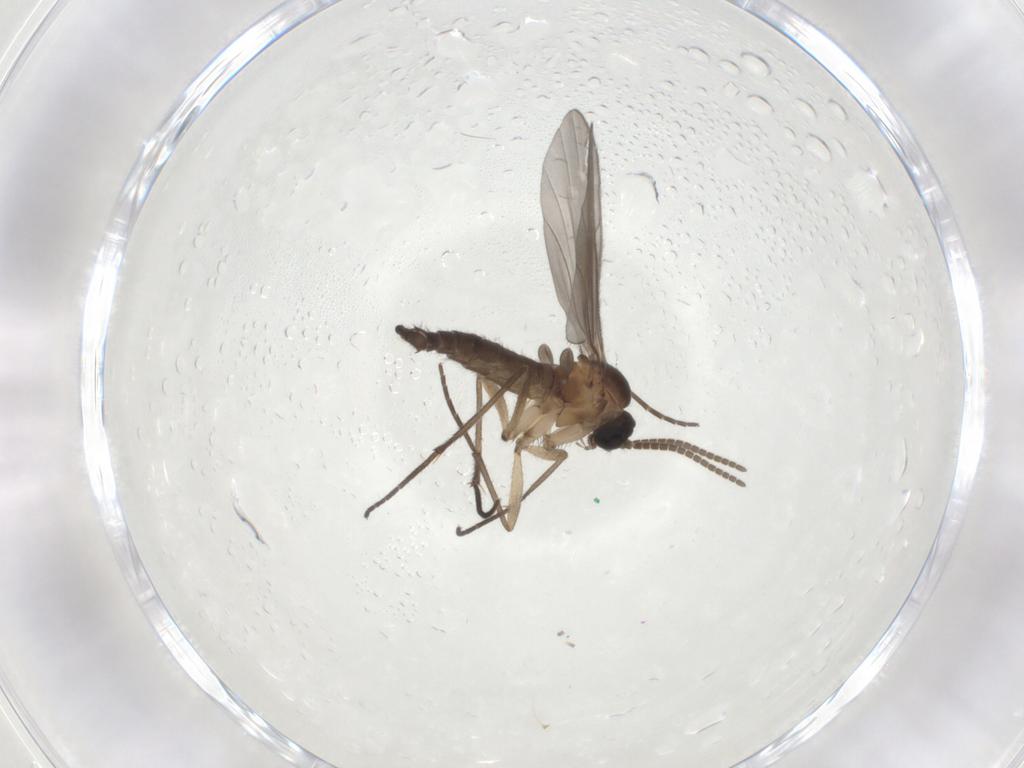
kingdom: Animalia
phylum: Arthropoda
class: Insecta
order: Diptera
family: Sciaridae
